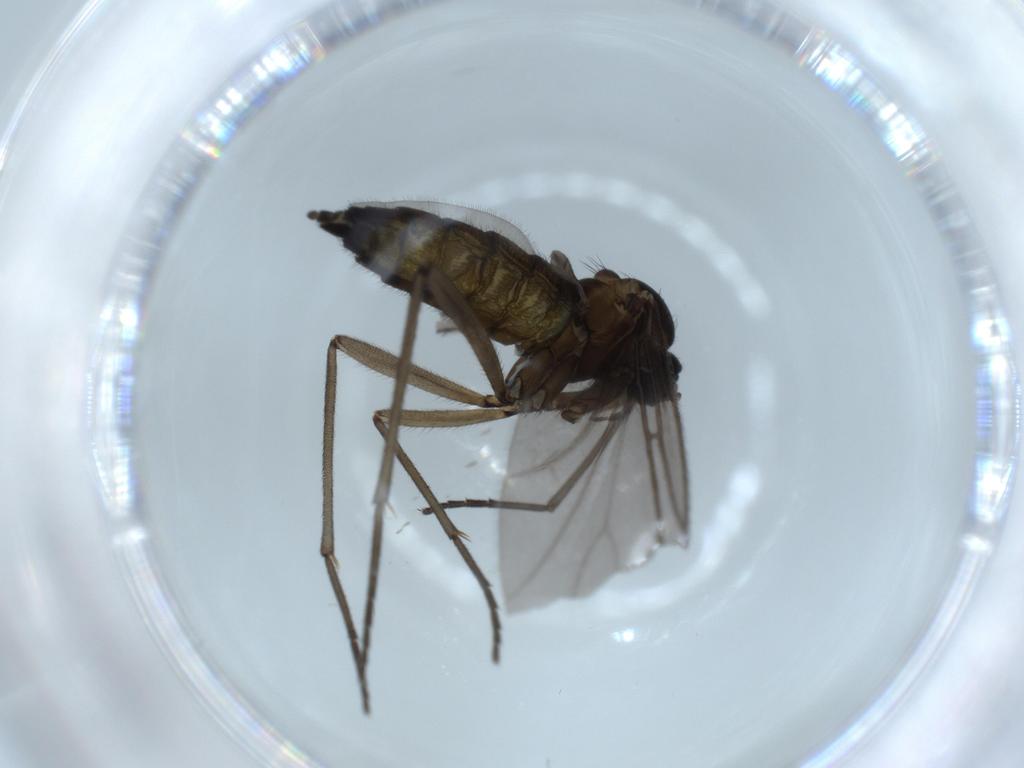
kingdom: Animalia
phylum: Arthropoda
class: Insecta
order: Diptera
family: Sciaridae
